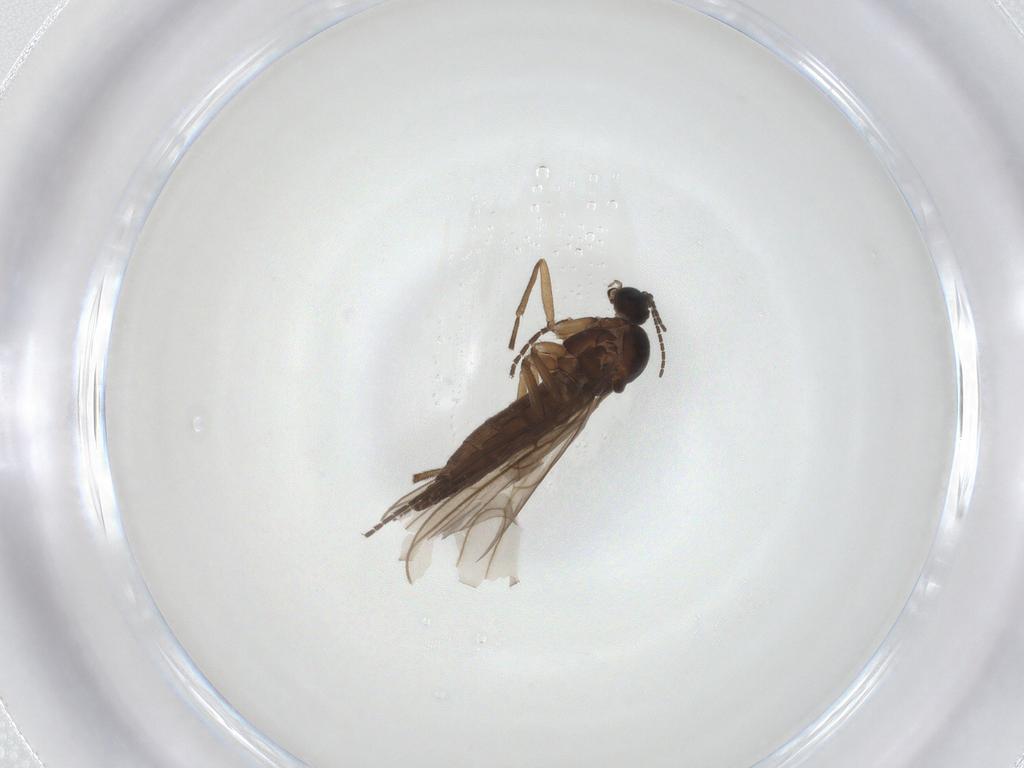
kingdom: Animalia
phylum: Arthropoda
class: Insecta
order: Diptera
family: Sciaridae
